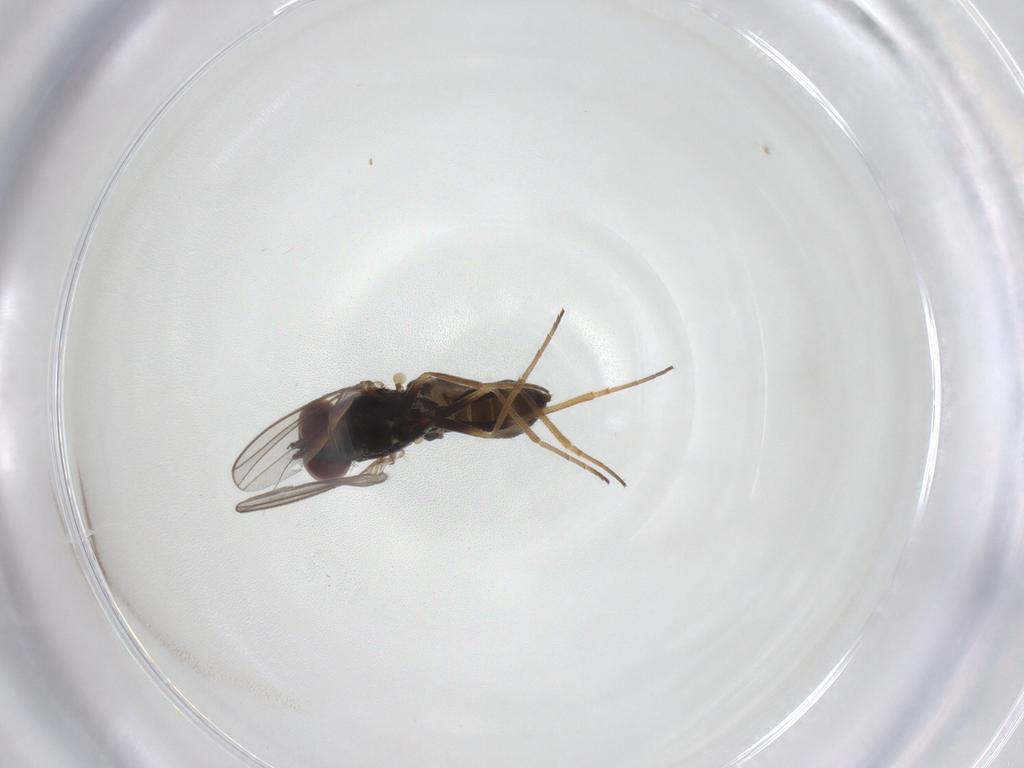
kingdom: Animalia
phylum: Arthropoda
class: Insecta
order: Diptera
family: Dolichopodidae
